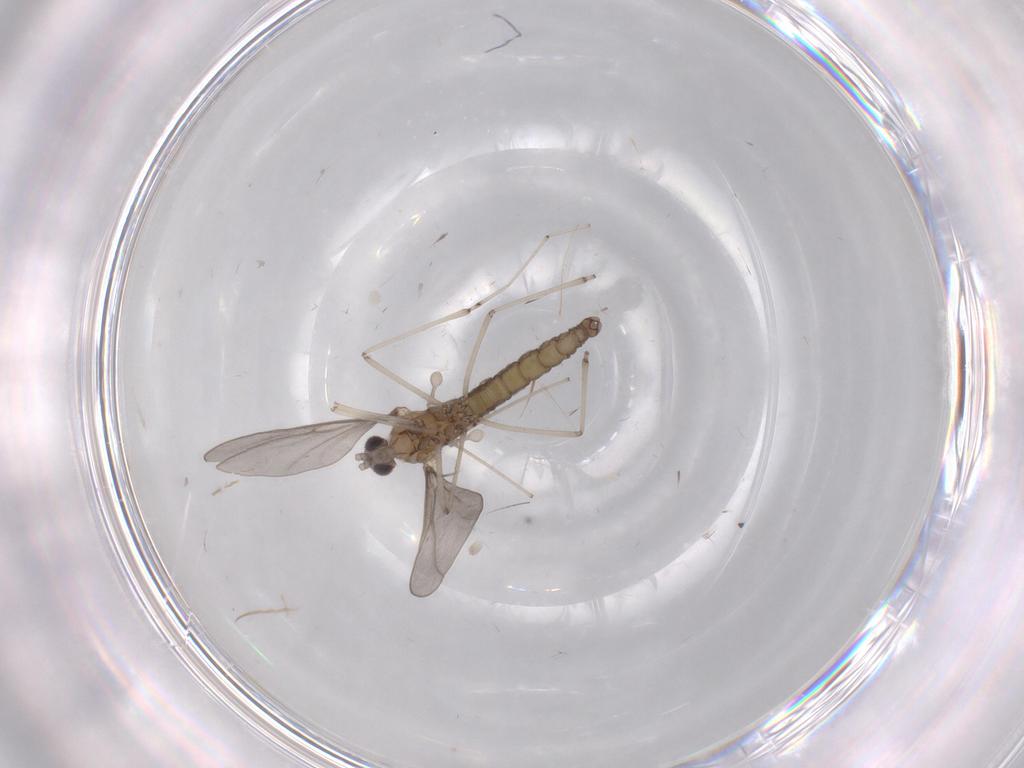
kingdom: Animalia
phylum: Arthropoda
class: Insecta
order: Diptera
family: Cecidomyiidae
